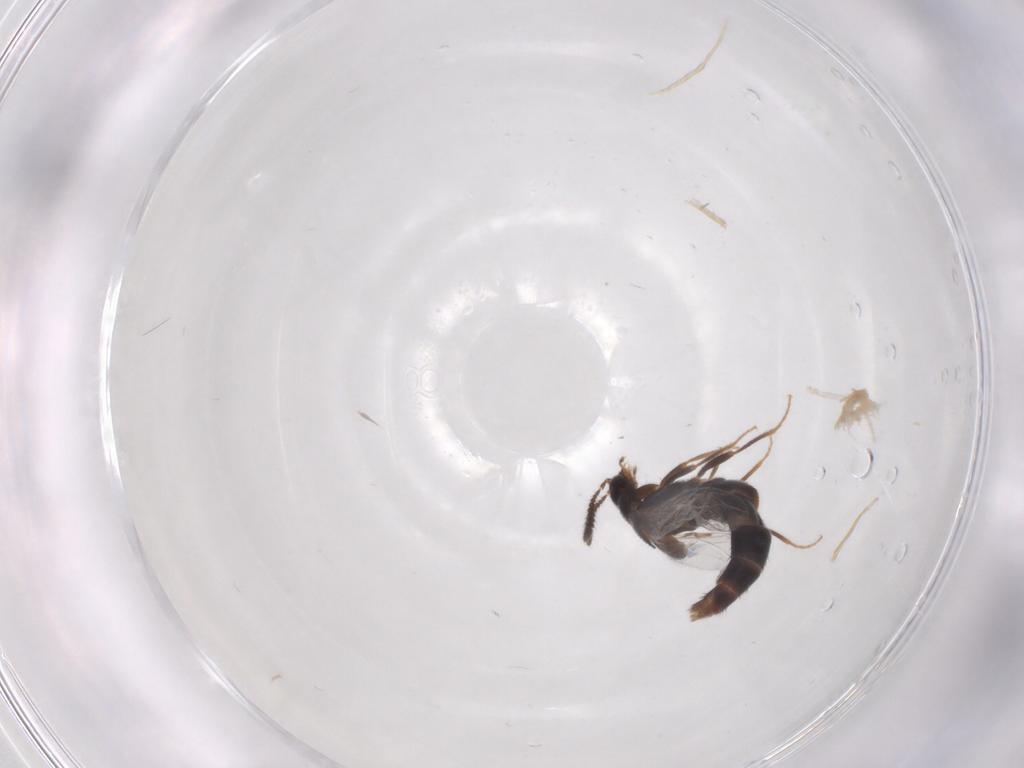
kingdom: Animalia
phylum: Arthropoda
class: Insecta
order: Coleoptera
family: Staphylinidae
